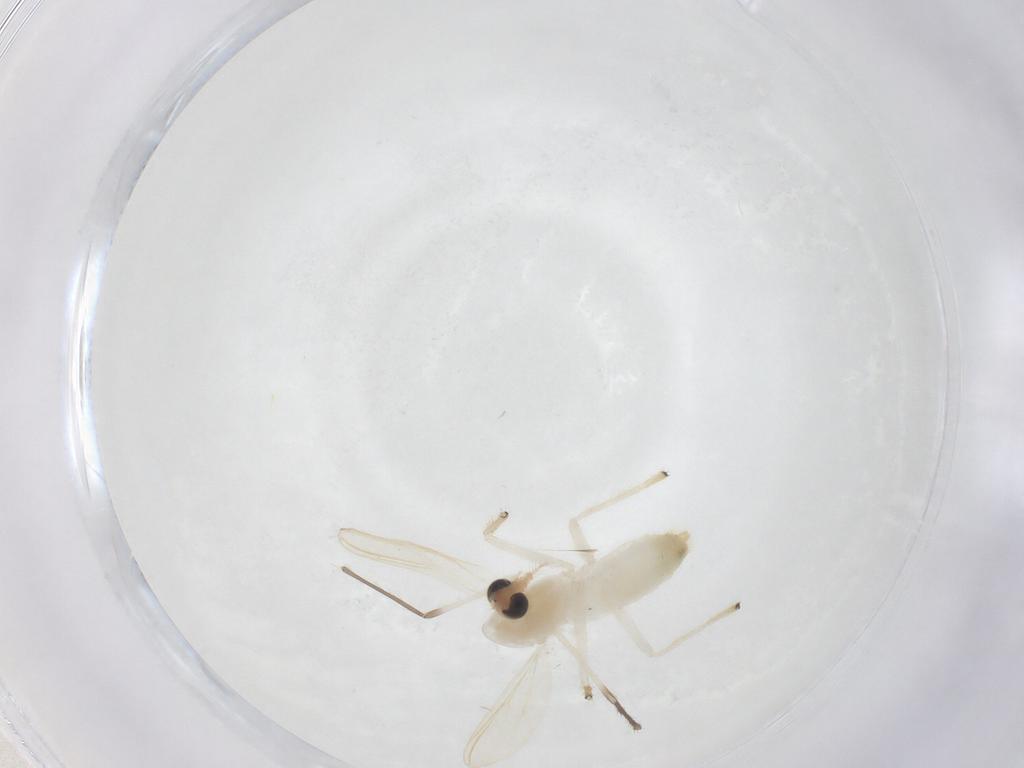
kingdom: Animalia
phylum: Arthropoda
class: Insecta
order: Diptera
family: Chironomidae
